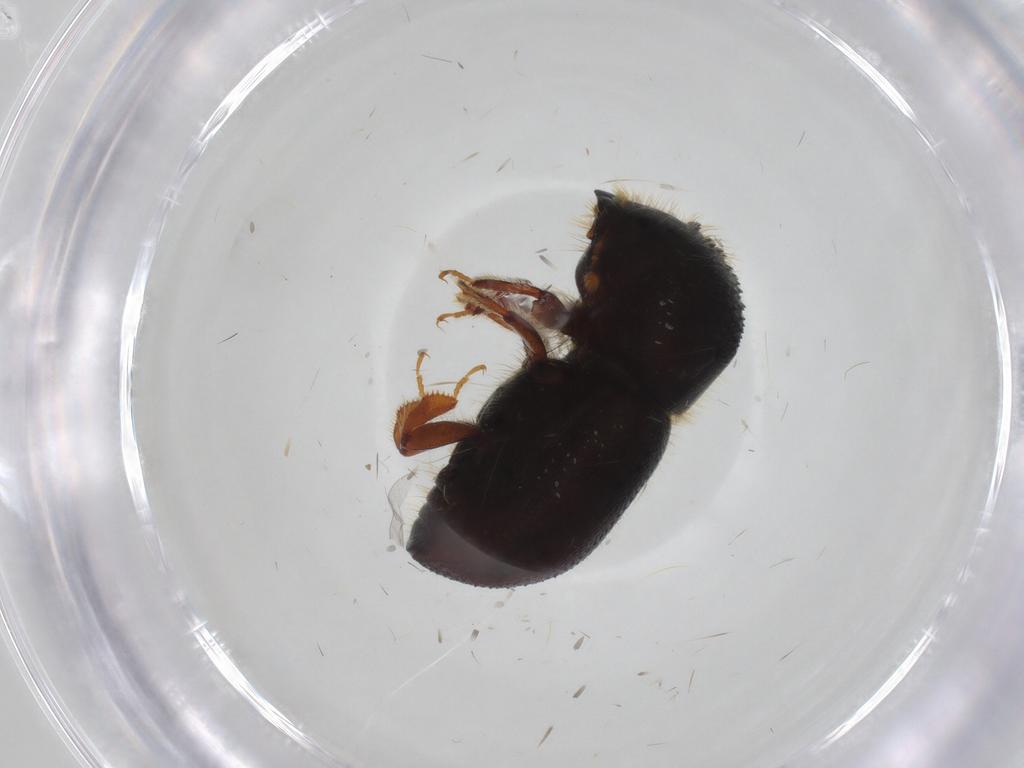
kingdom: Animalia
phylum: Arthropoda
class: Insecta
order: Coleoptera
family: Curculionidae
